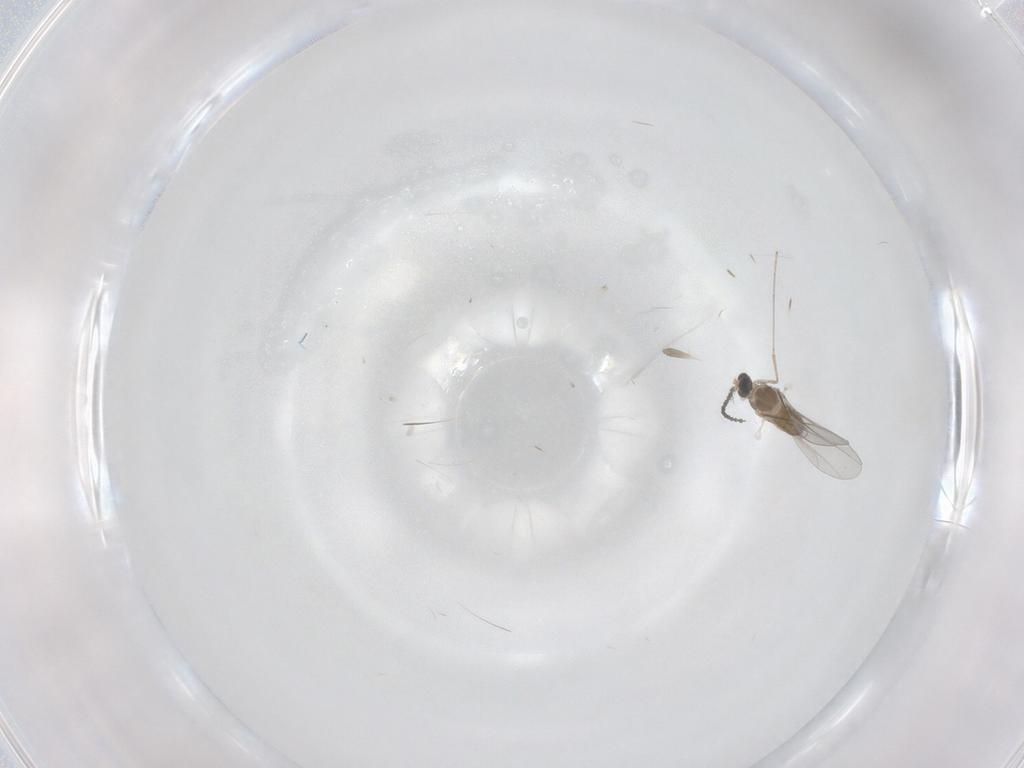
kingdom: Animalia
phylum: Arthropoda
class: Insecta
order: Diptera
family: Cecidomyiidae
